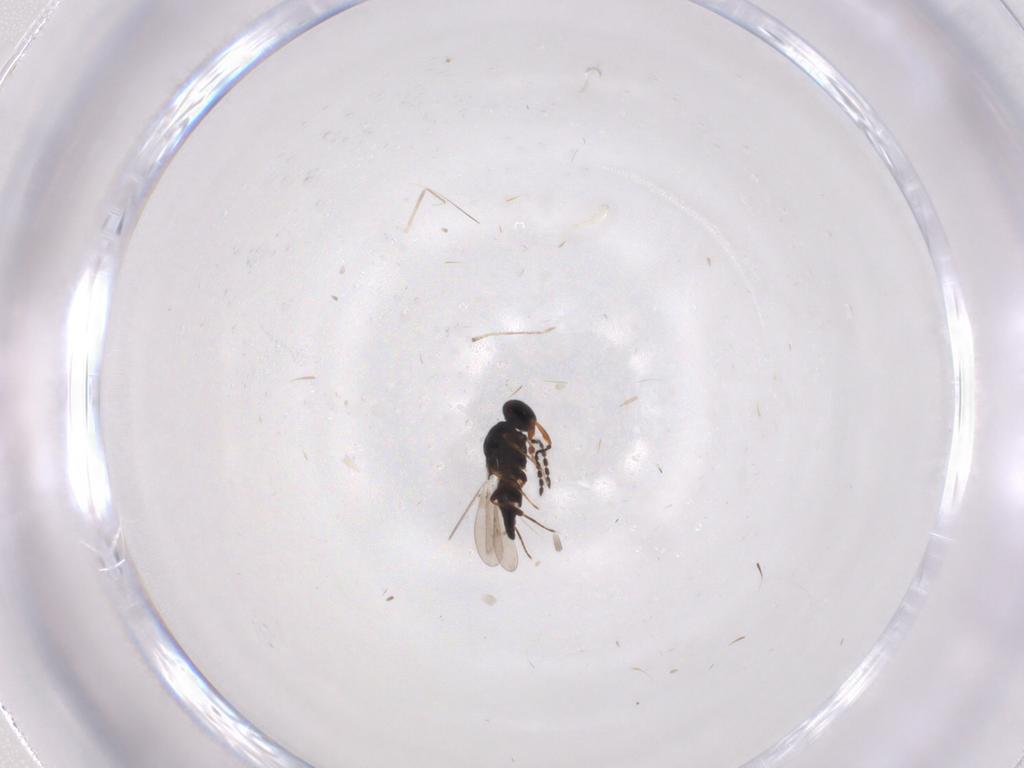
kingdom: Animalia
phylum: Arthropoda
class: Insecta
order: Hymenoptera
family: Platygastridae
